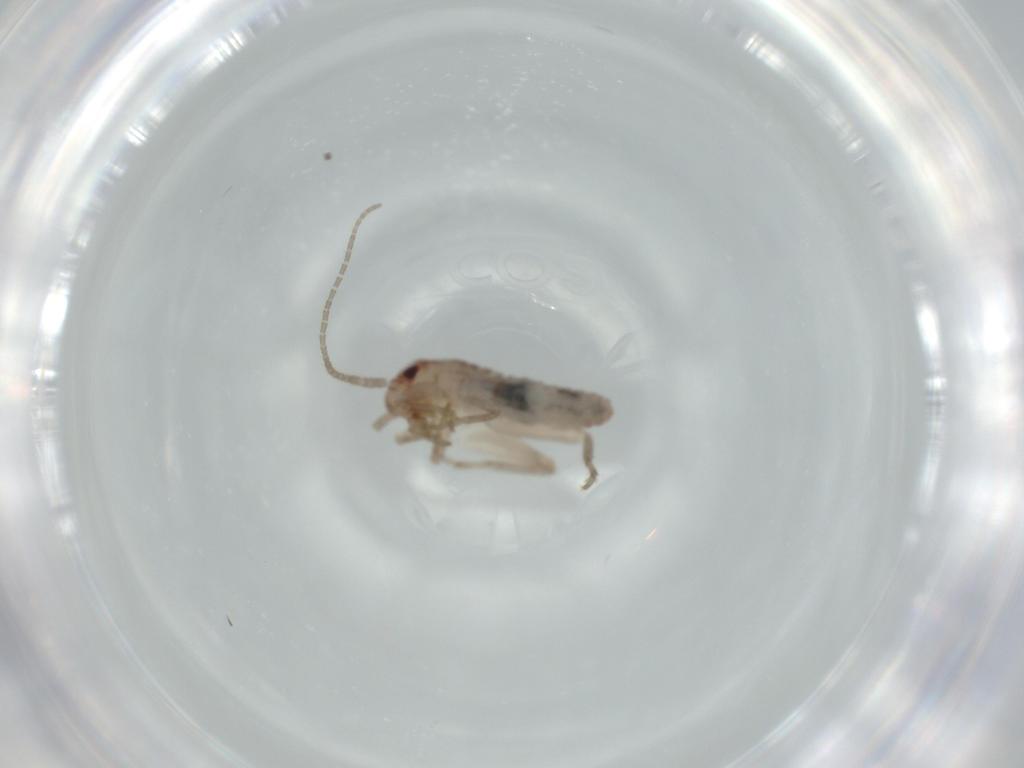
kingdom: Animalia
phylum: Arthropoda
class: Insecta
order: Orthoptera
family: Mogoplistidae
